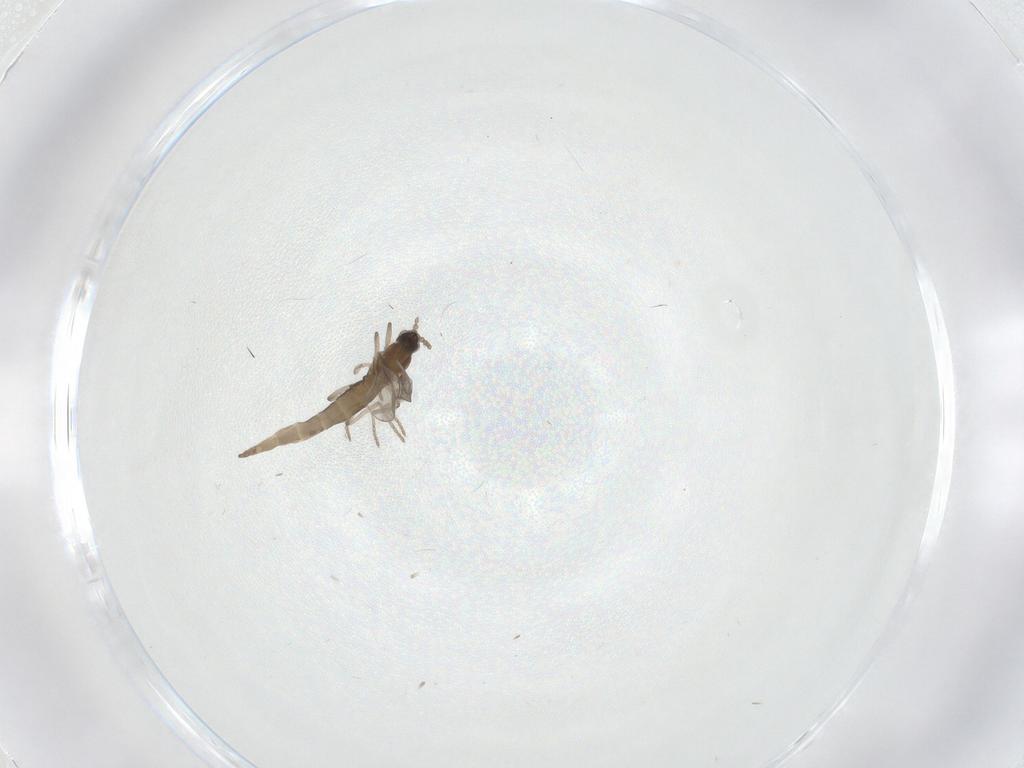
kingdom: Animalia
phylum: Arthropoda
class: Insecta
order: Diptera
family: Cecidomyiidae
